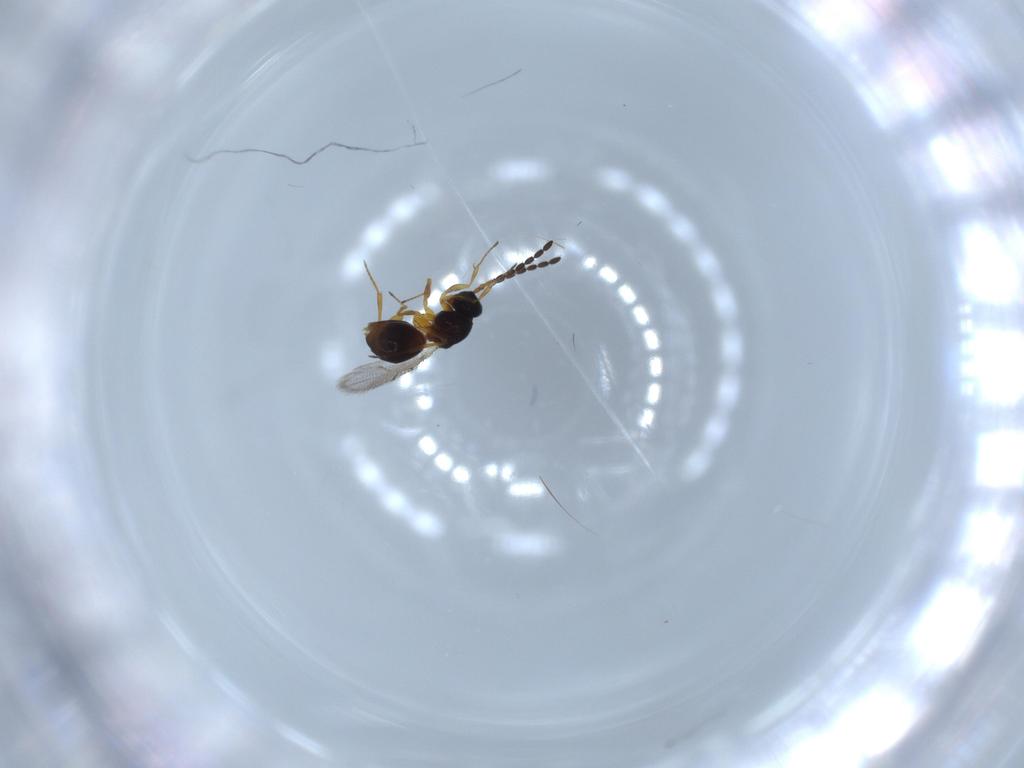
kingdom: Animalia
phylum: Arthropoda
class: Insecta
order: Hymenoptera
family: Figitidae
